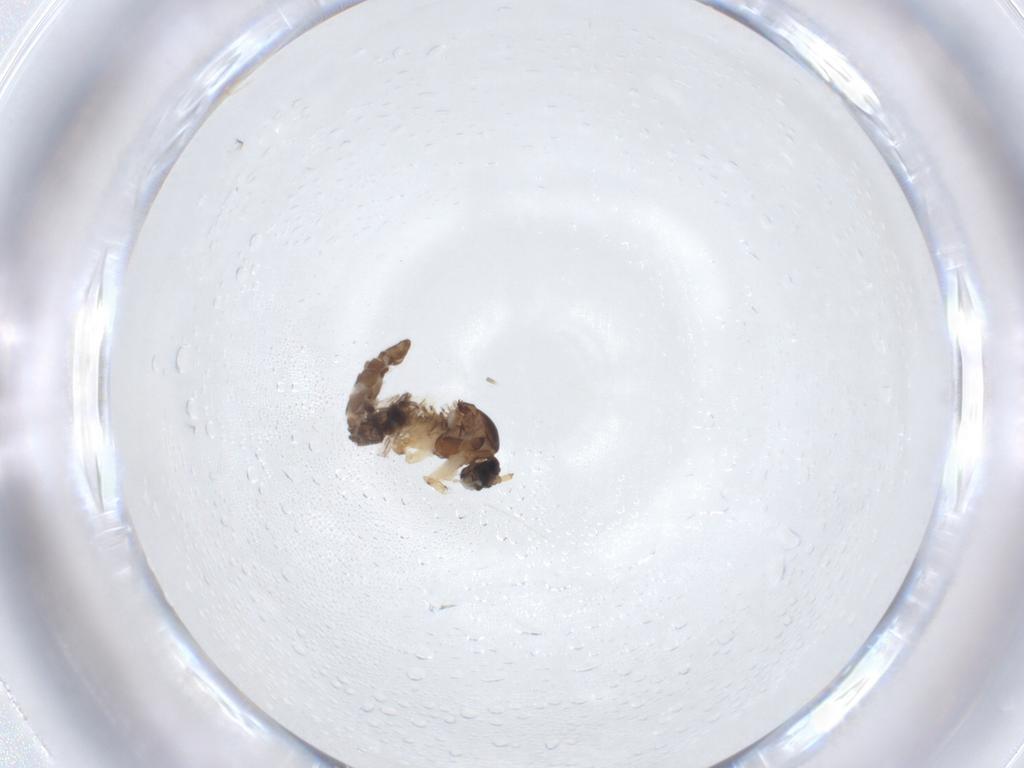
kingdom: Animalia
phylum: Arthropoda
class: Insecta
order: Diptera
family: Sciaridae
